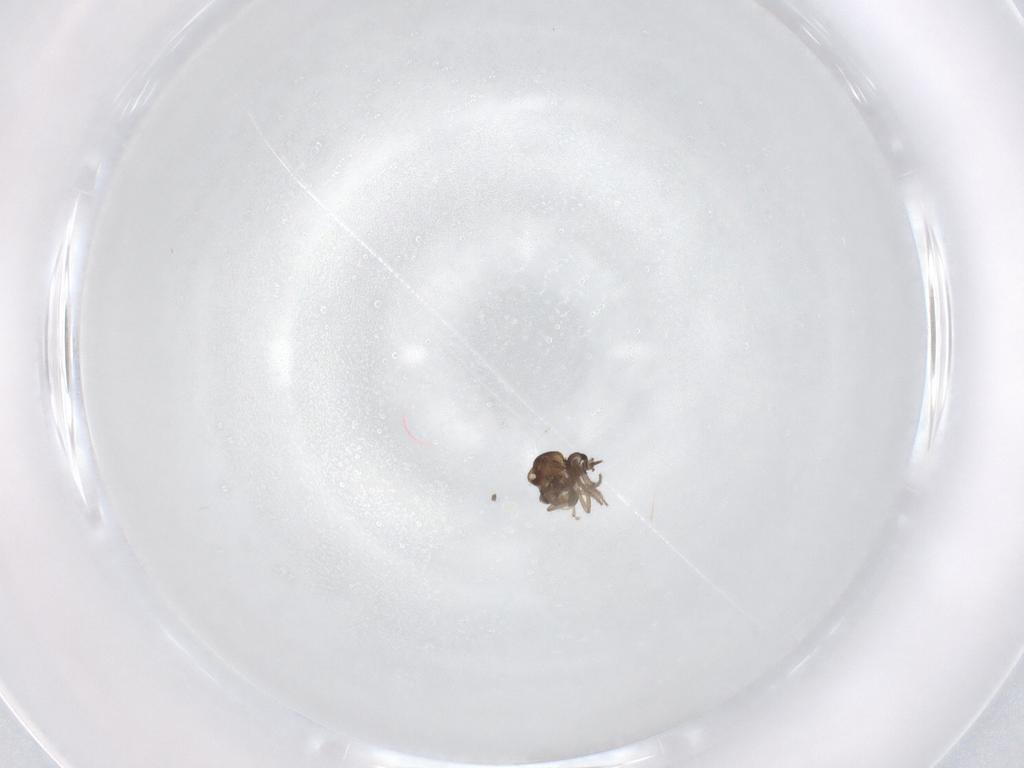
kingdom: Animalia
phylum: Arthropoda
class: Insecta
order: Diptera
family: Ceratopogonidae
